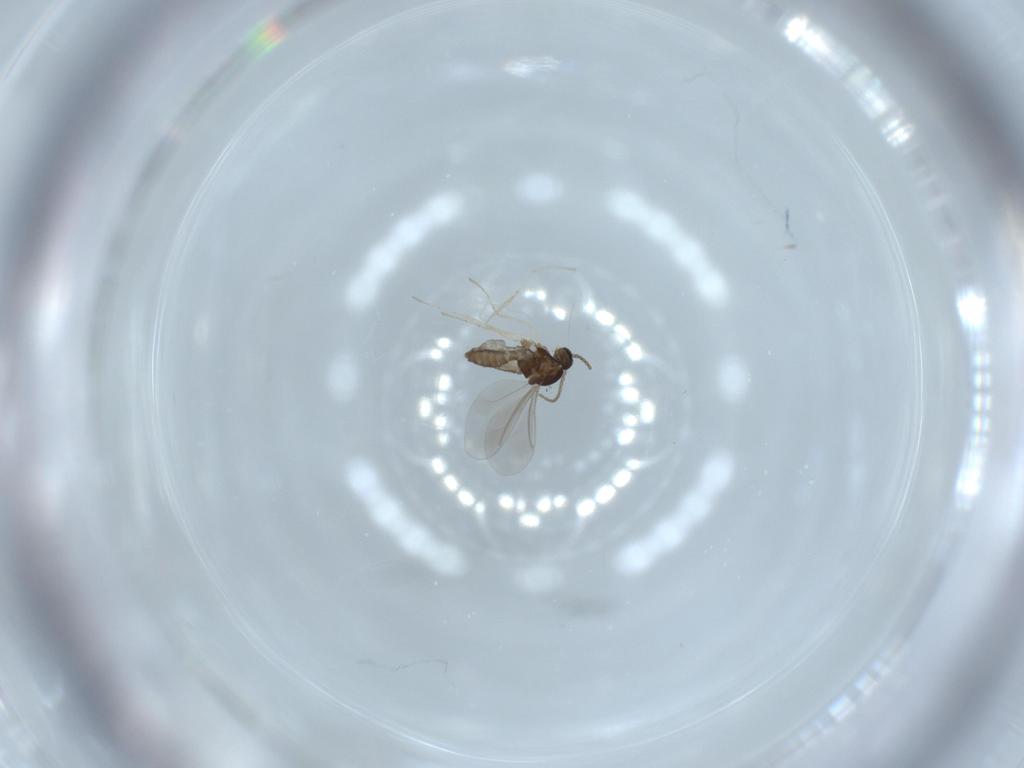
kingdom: Animalia
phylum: Arthropoda
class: Insecta
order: Diptera
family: Cecidomyiidae
